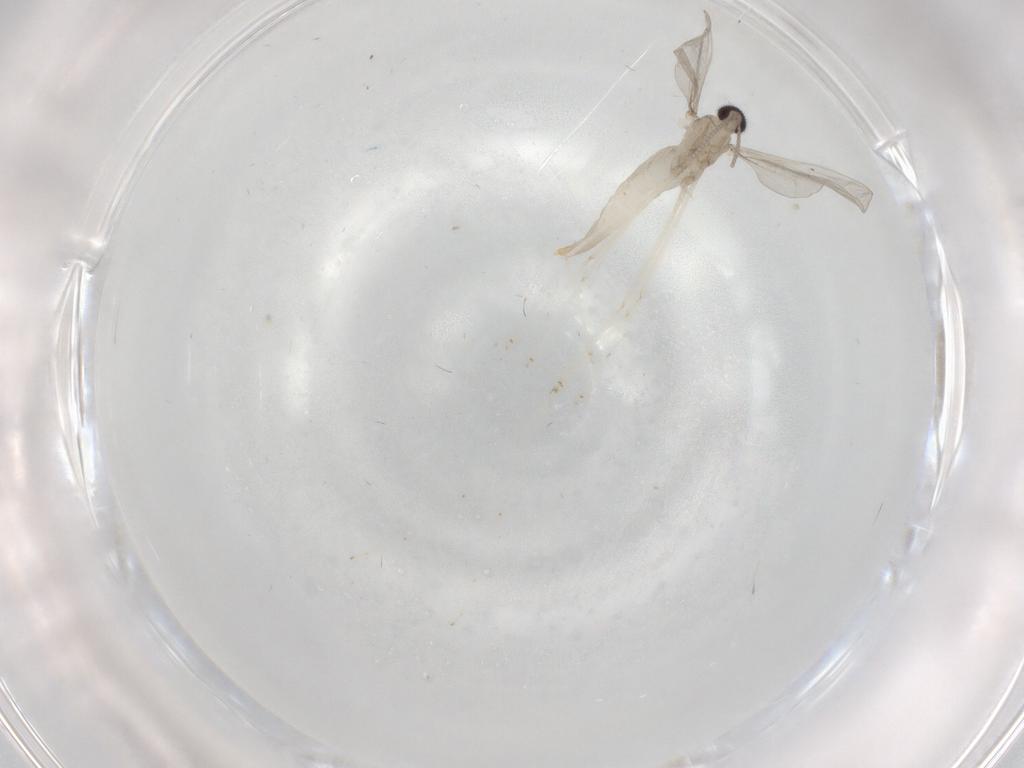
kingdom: Animalia
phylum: Arthropoda
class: Insecta
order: Diptera
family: Cecidomyiidae
